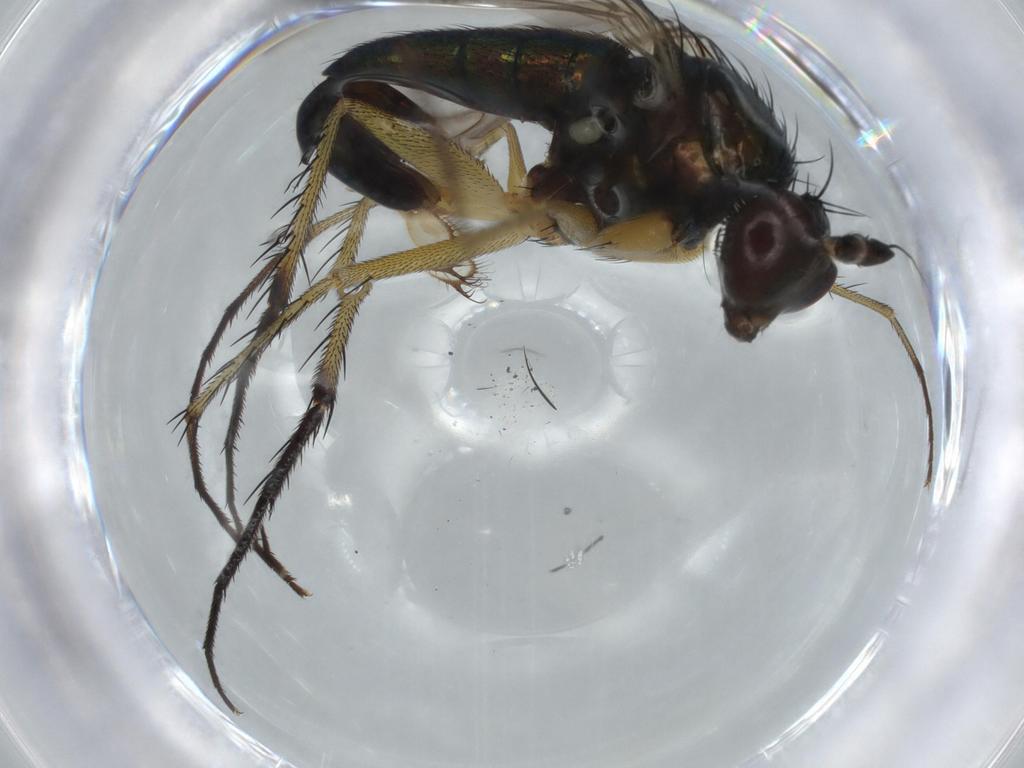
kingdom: Animalia
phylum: Arthropoda
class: Insecta
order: Diptera
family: Dolichopodidae
